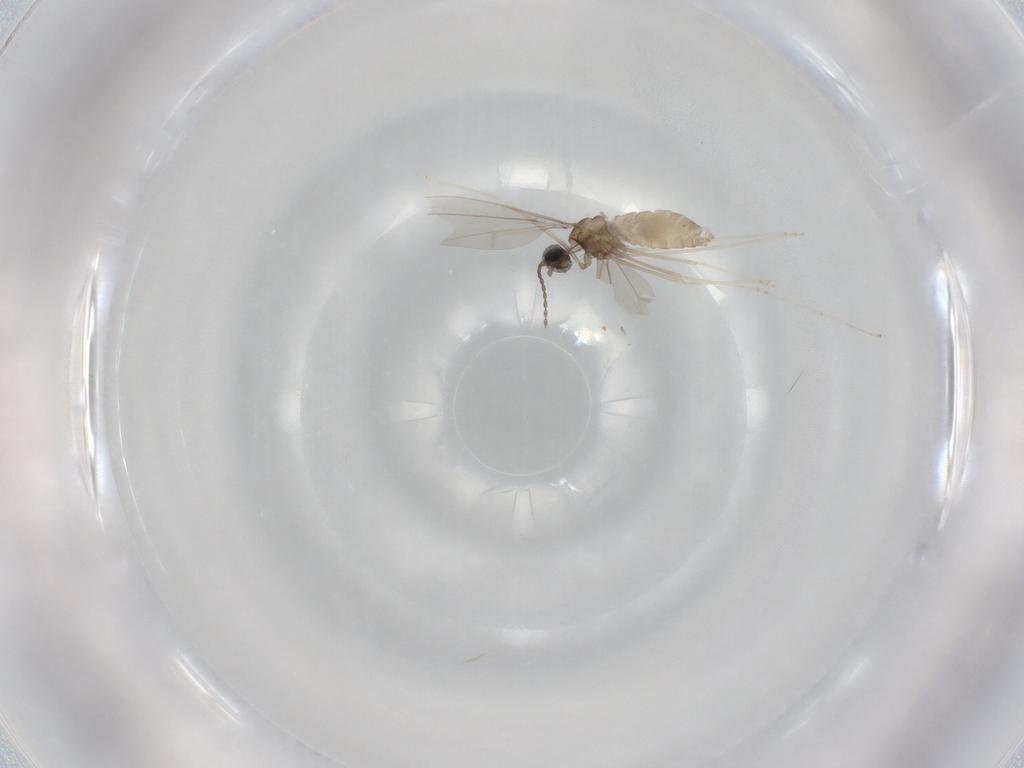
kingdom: Animalia
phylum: Arthropoda
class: Insecta
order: Diptera
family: Cecidomyiidae
